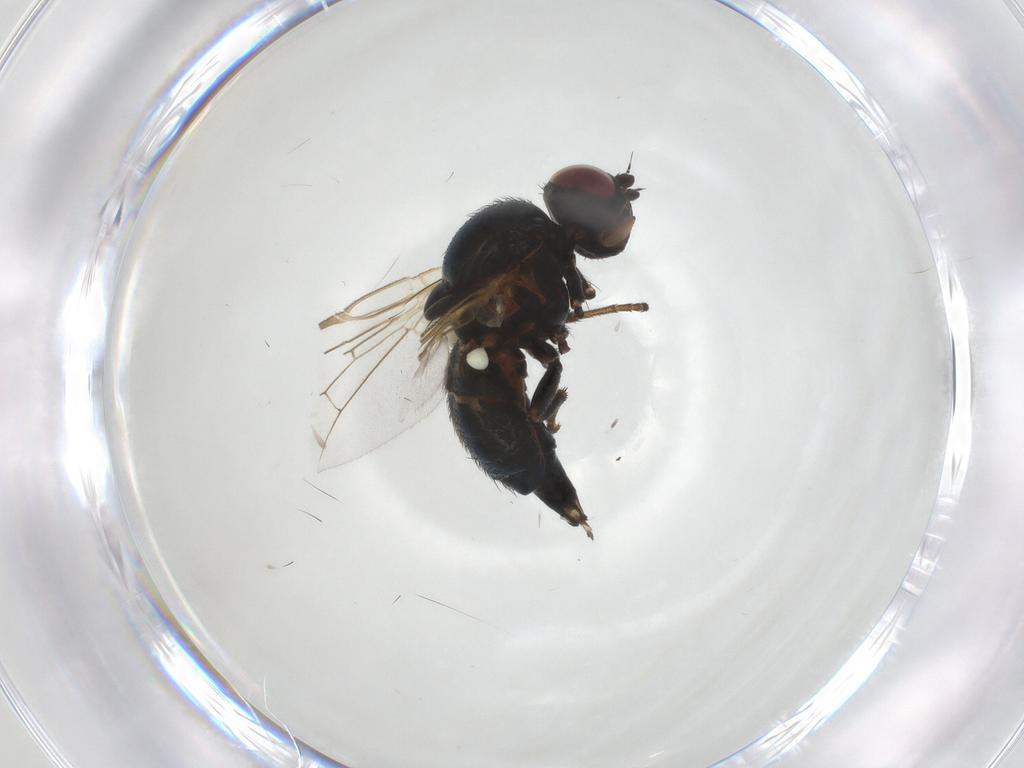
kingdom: Animalia
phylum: Arthropoda
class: Insecta
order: Diptera
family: Agromyzidae
